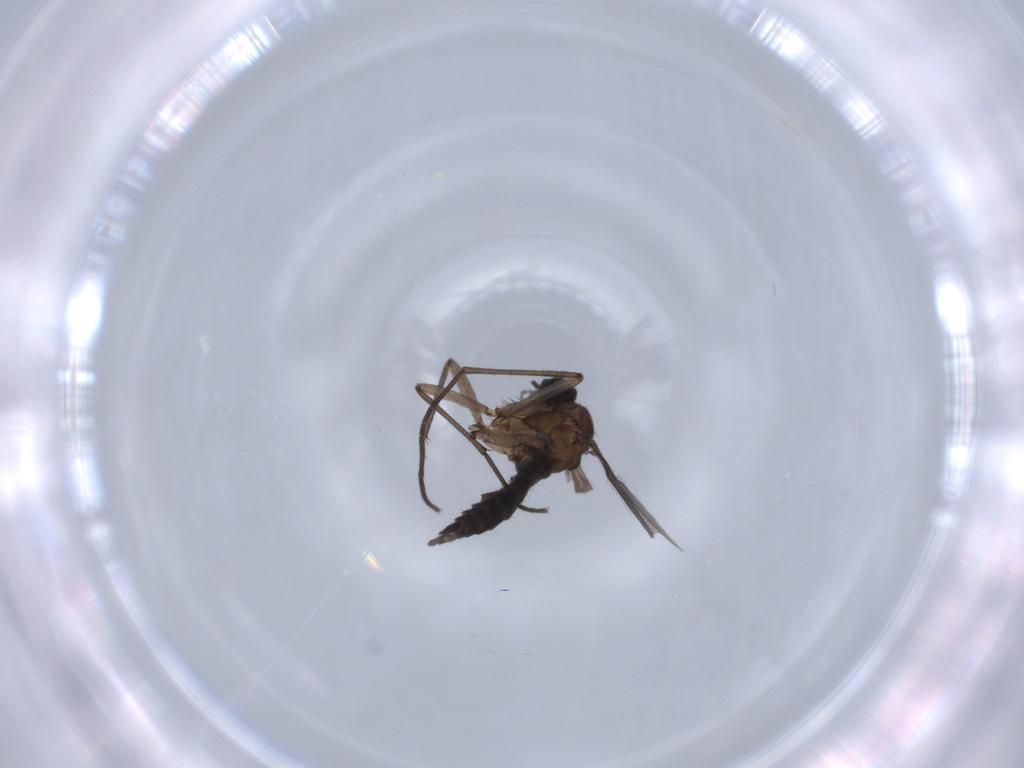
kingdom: Animalia
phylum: Arthropoda
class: Insecta
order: Diptera
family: Sciaridae
